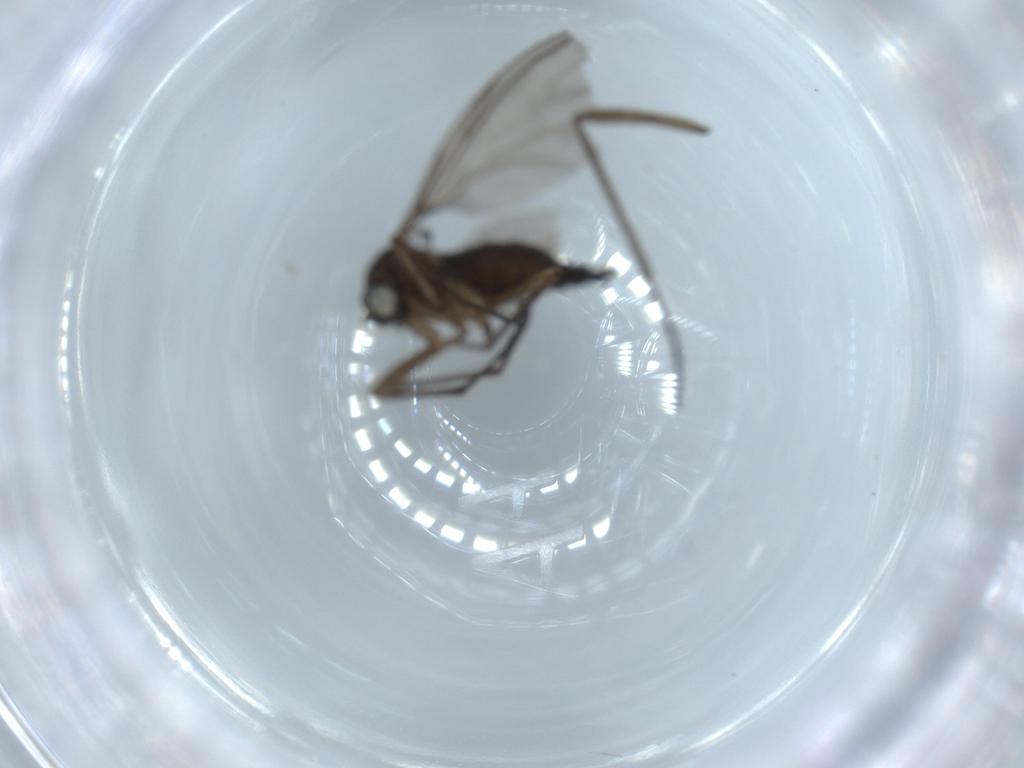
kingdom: Animalia
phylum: Arthropoda
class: Insecta
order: Diptera
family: Sciaridae
